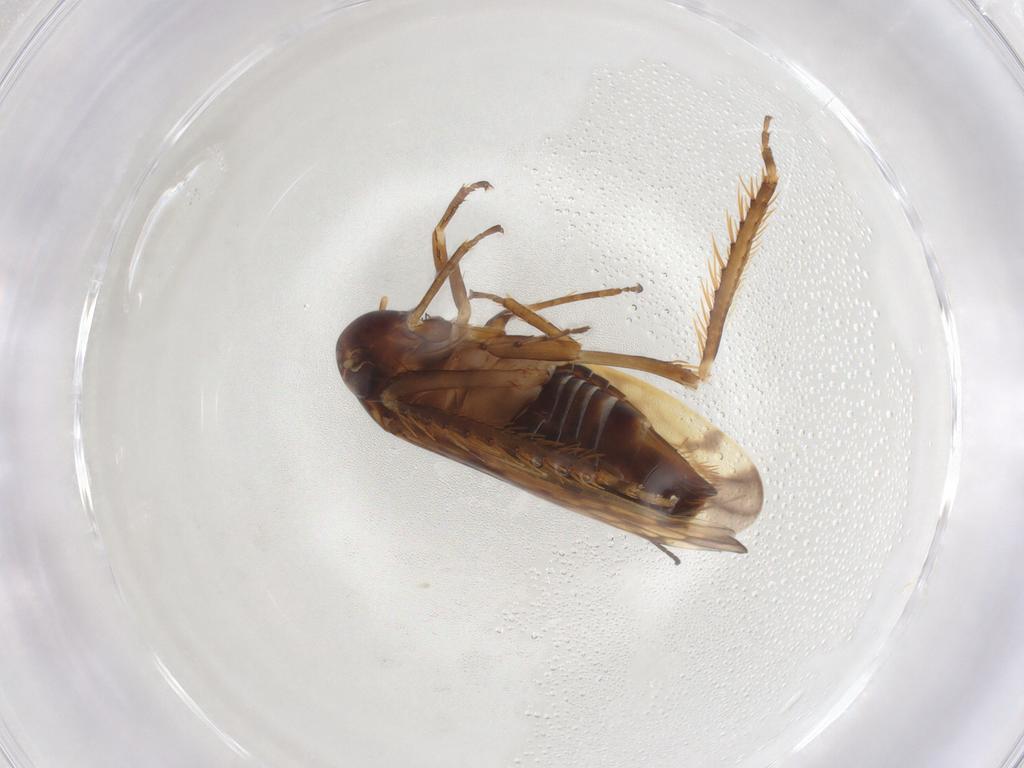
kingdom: Animalia
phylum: Arthropoda
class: Insecta
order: Hemiptera
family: Cicadellidae
